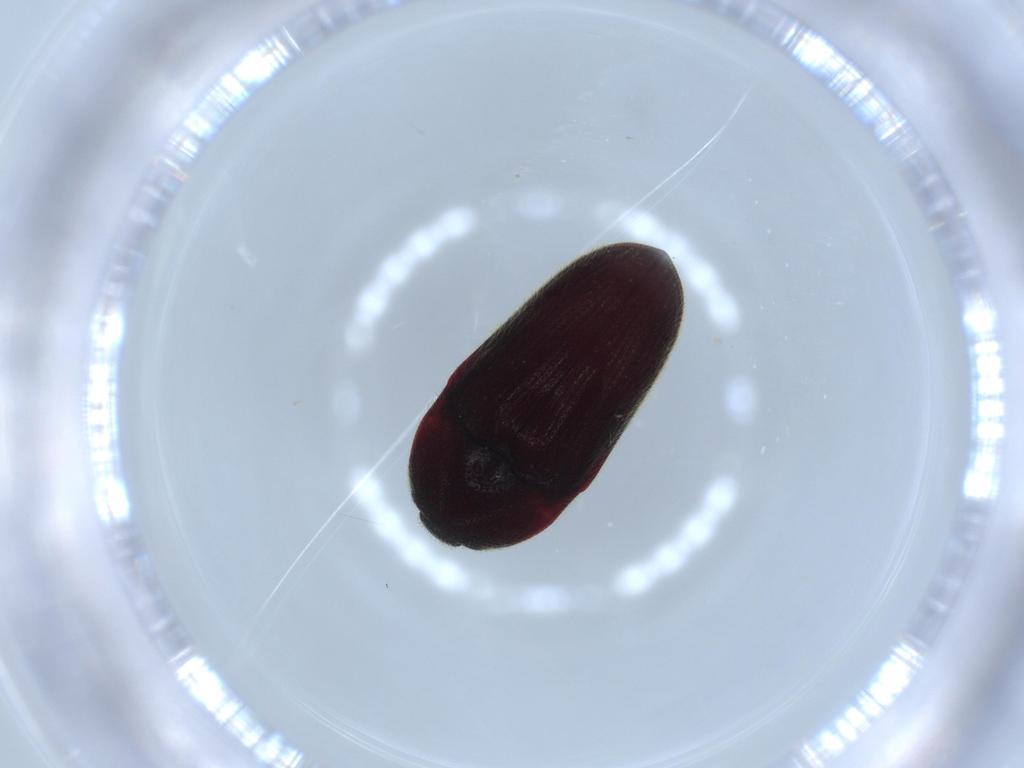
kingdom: Animalia
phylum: Arthropoda
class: Insecta
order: Coleoptera
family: Throscidae
